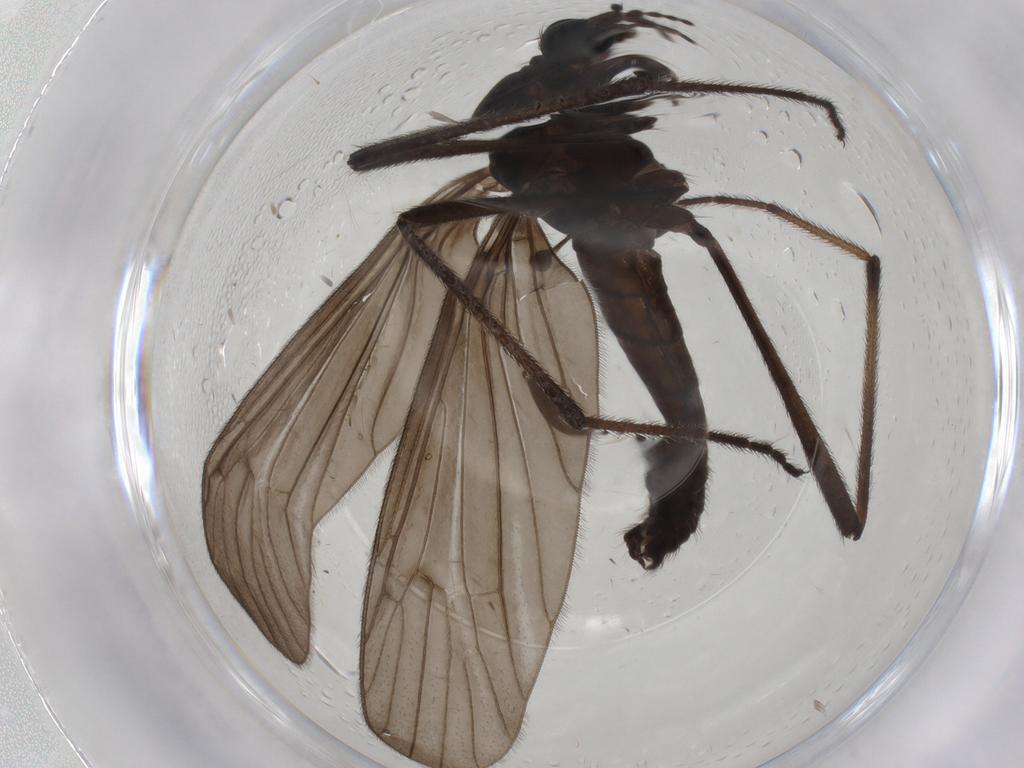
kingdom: Animalia
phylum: Arthropoda
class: Insecta
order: Diptera
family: Limoniidae
